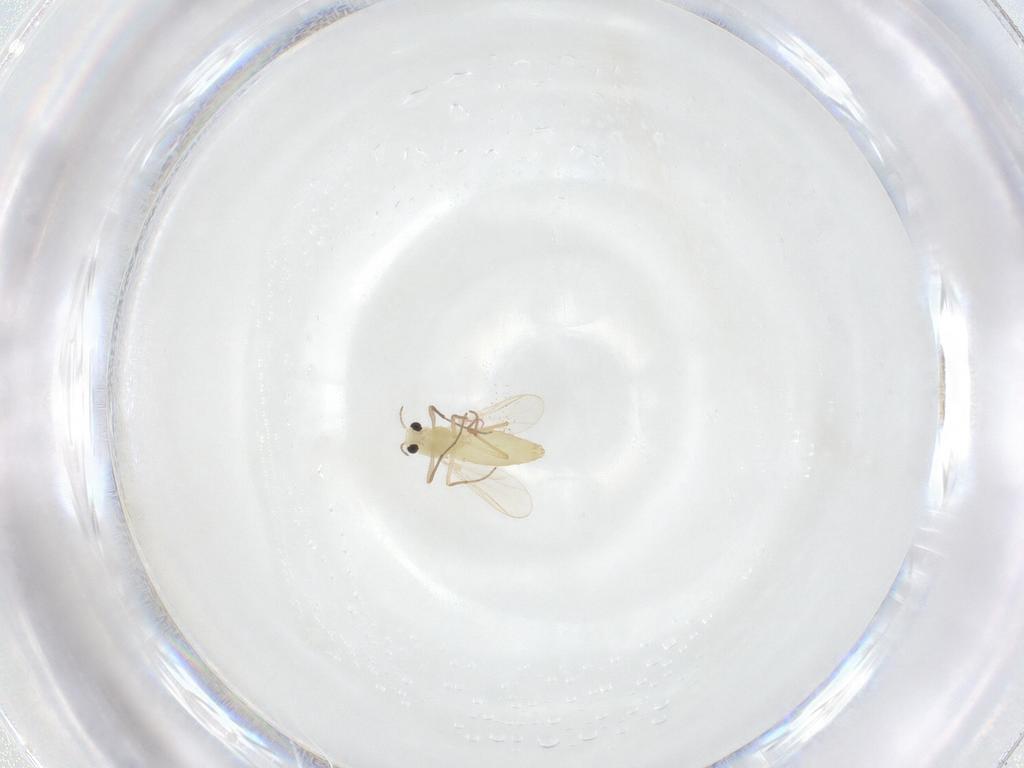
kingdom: Animalia
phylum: Arthropoda
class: Insecta
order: Diptera
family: Chironomidae
